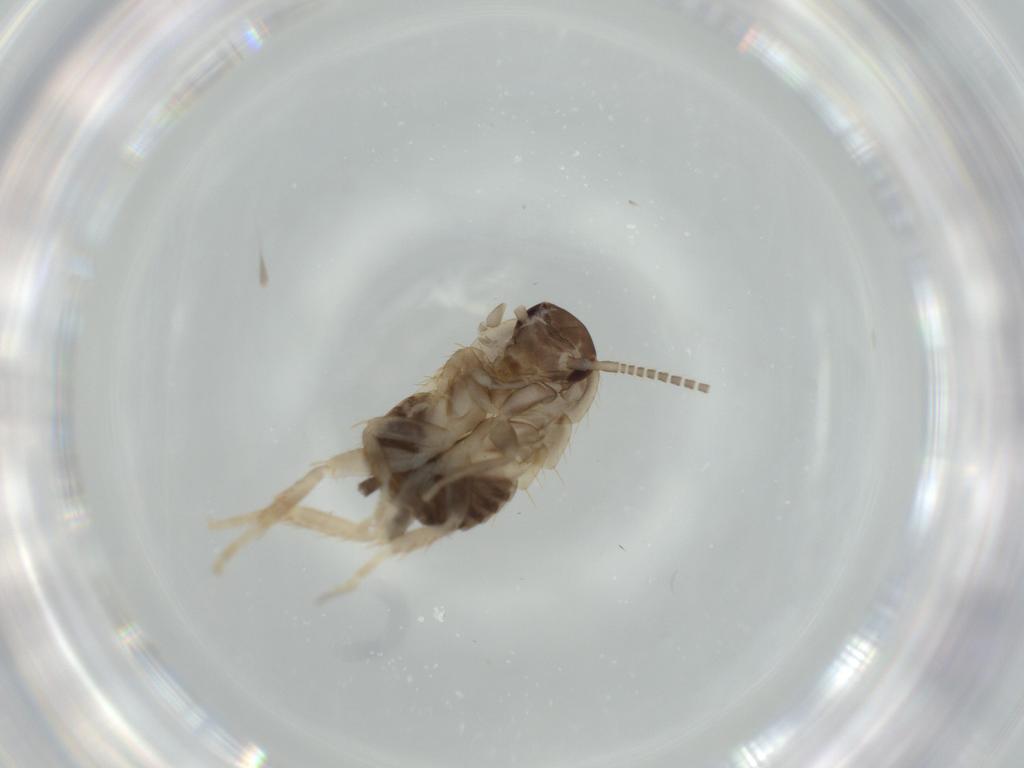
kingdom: Animalia
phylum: Arthropoda
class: Insecta
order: Blattodea
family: Ectobiidae
